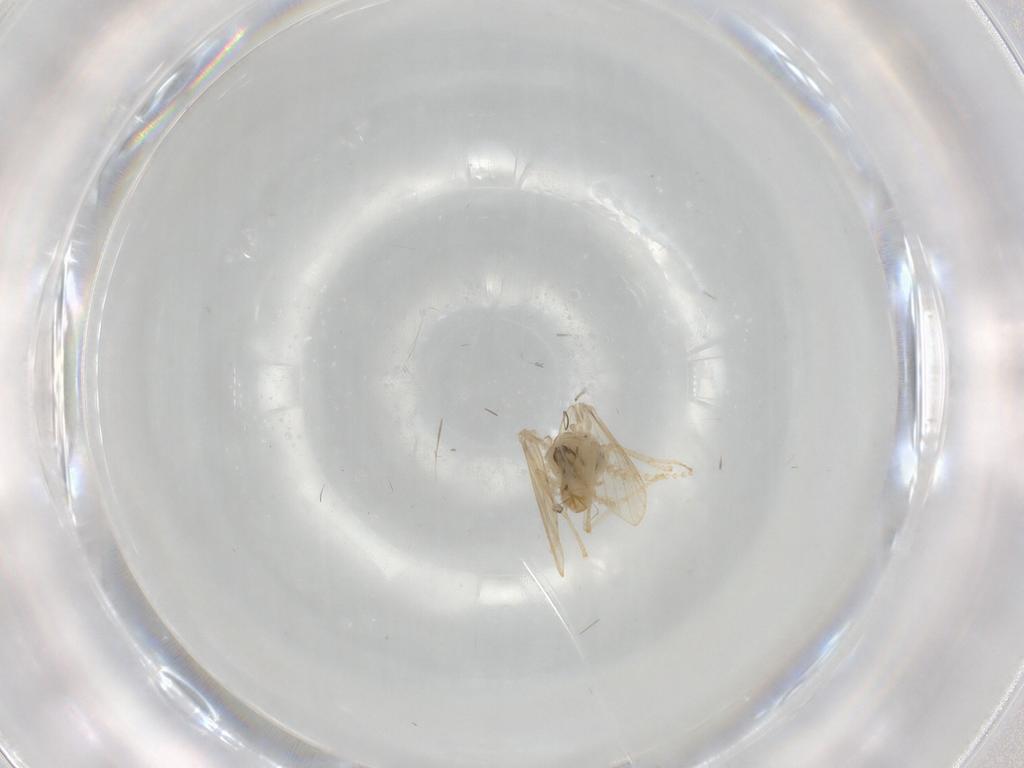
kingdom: Animalia
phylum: Arthropoda
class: Insecta
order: Diptera
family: Psychodidae
